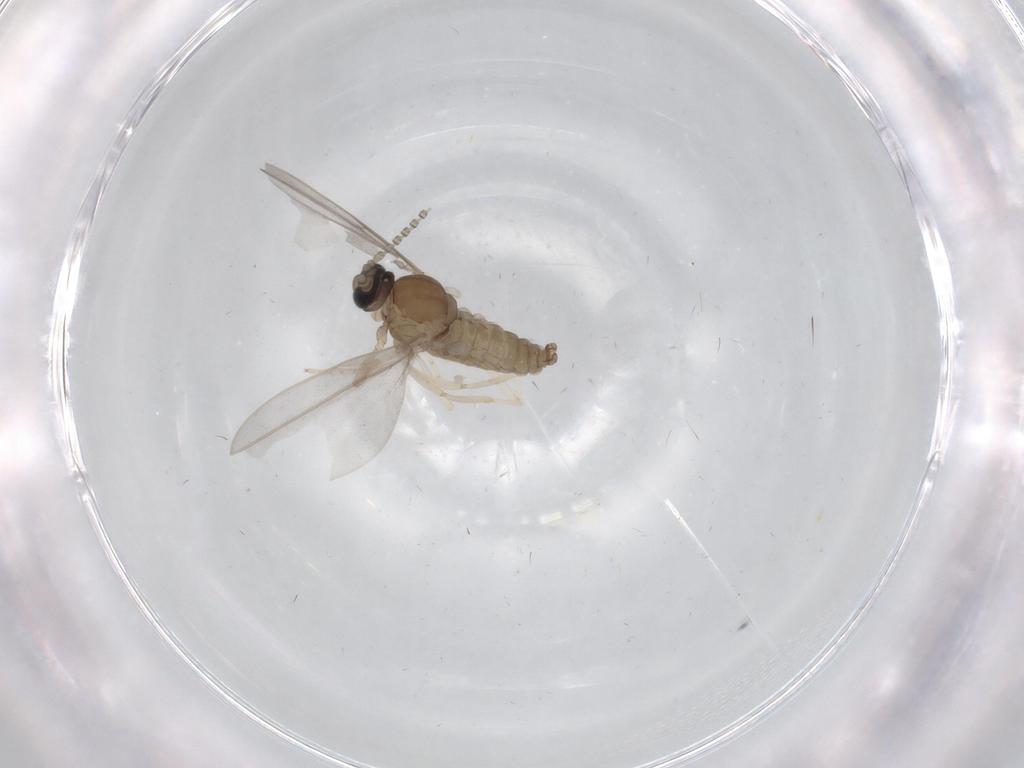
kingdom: Animalia
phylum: Arthropoda
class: Insecta
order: Diptera
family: Cecidomyiidae
